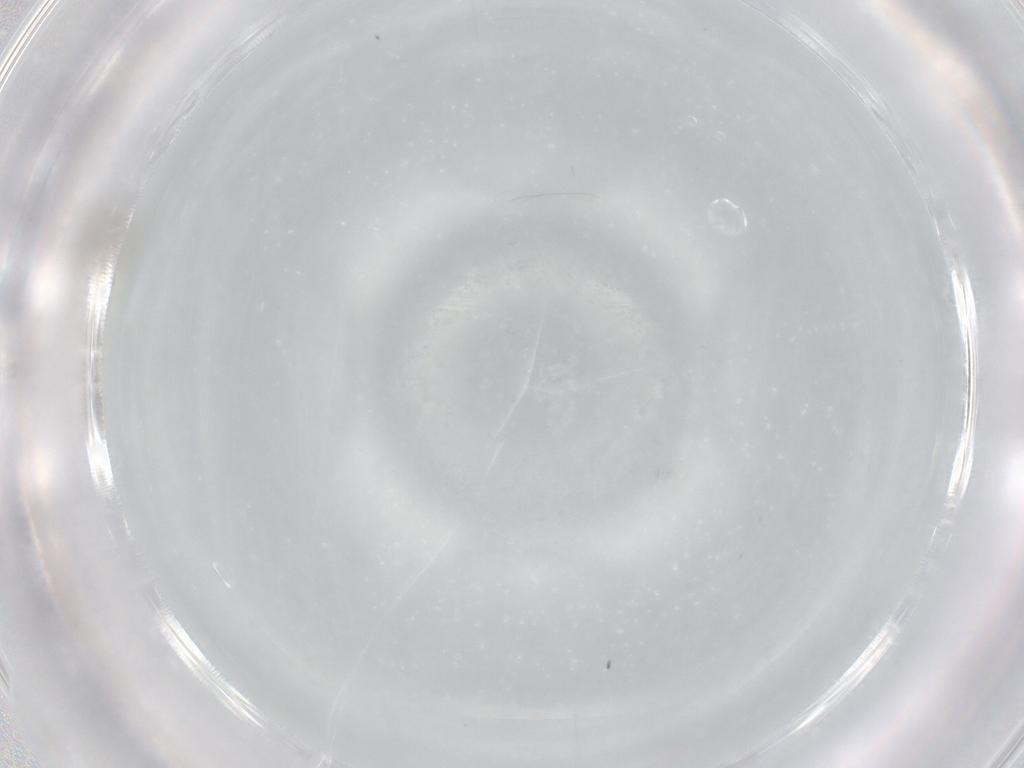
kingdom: Animalia
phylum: Arthropoda
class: Insecta
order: Diptera
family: Cecidomyiidae
